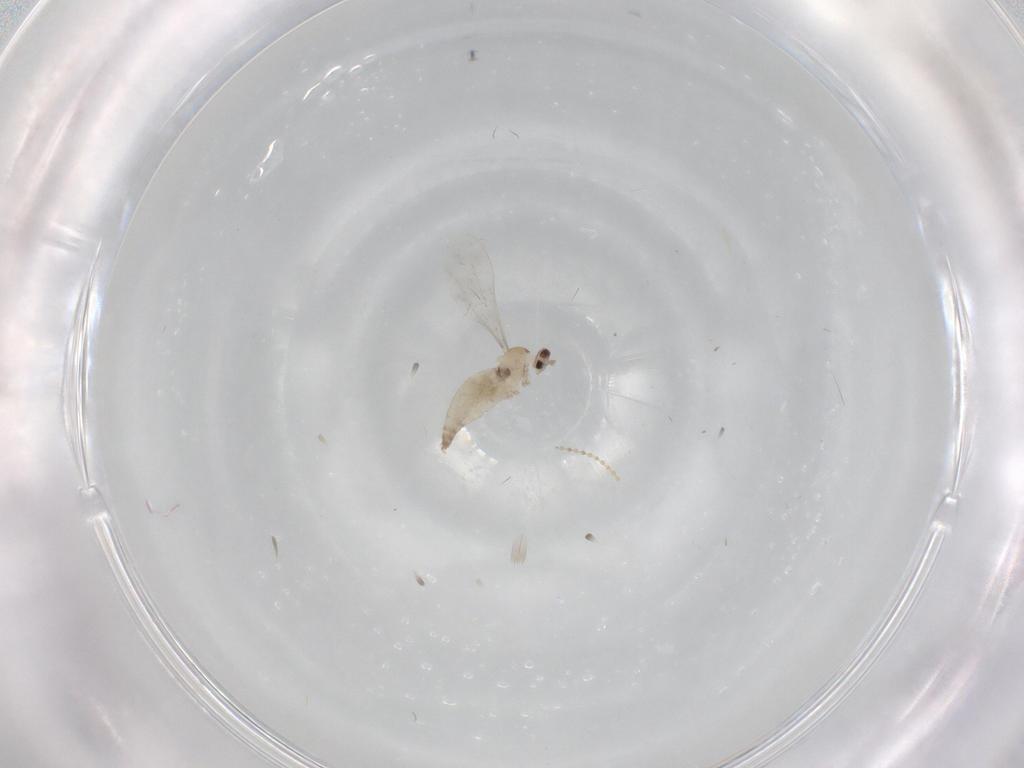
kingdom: Animalia
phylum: Arthropoda
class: Insecta
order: Diptera
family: Cecidomyiidae
